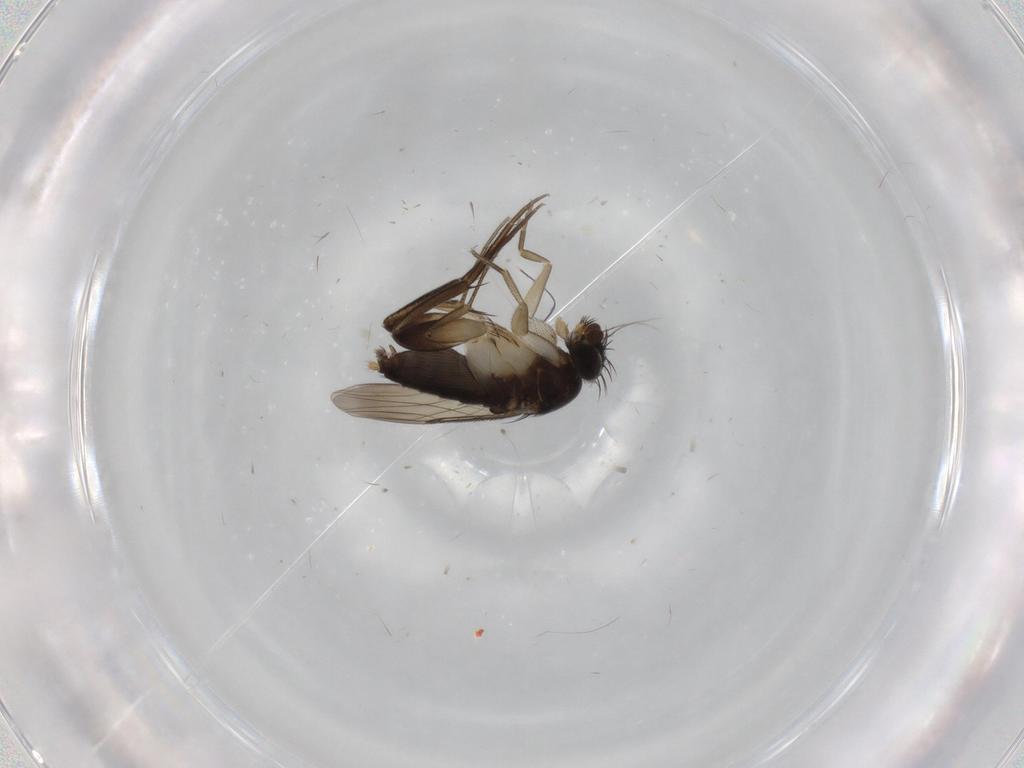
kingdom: Animalia
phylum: Arthropoda
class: Insecta
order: Diptera
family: Phoridae
